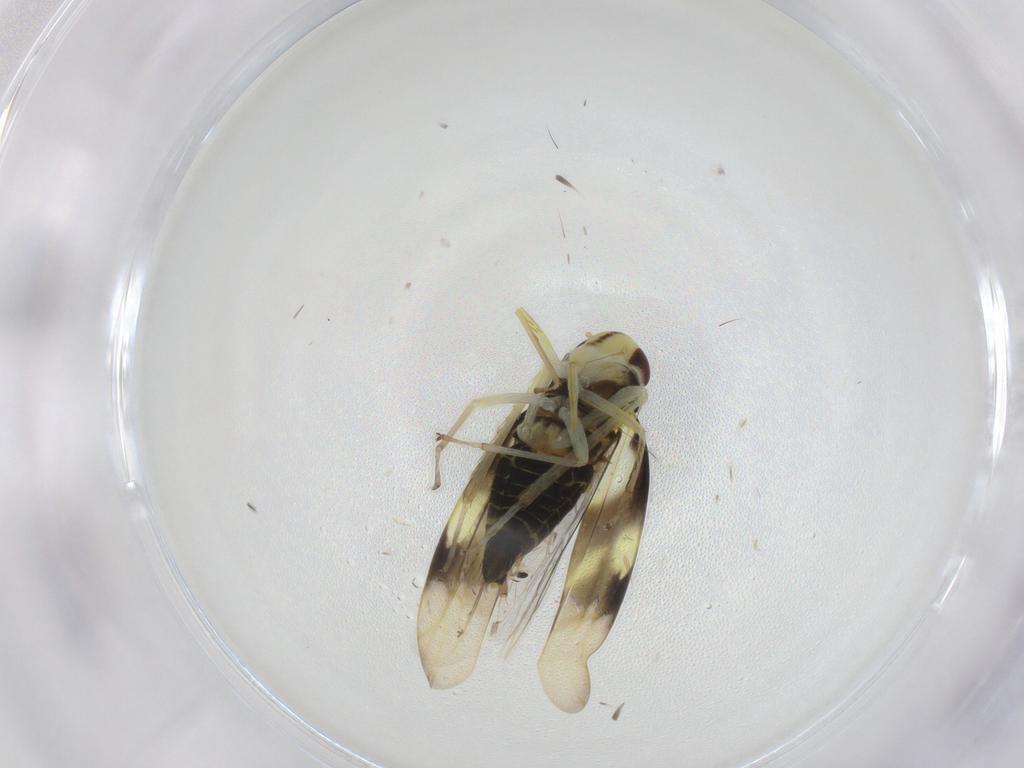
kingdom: Animalia
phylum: Arthropoda
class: Insecta
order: Hemiptera
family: Cicadellidae
